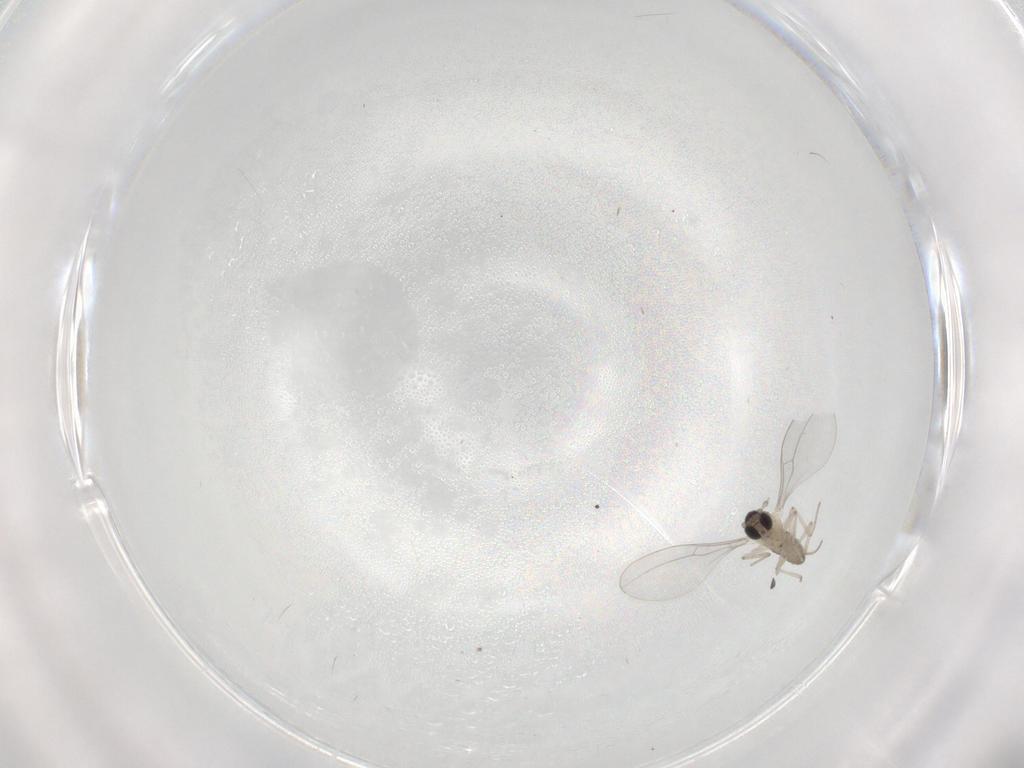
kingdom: Animalia
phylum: Arthropoda
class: Insecta
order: Diptera
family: Cecidomyiidae
